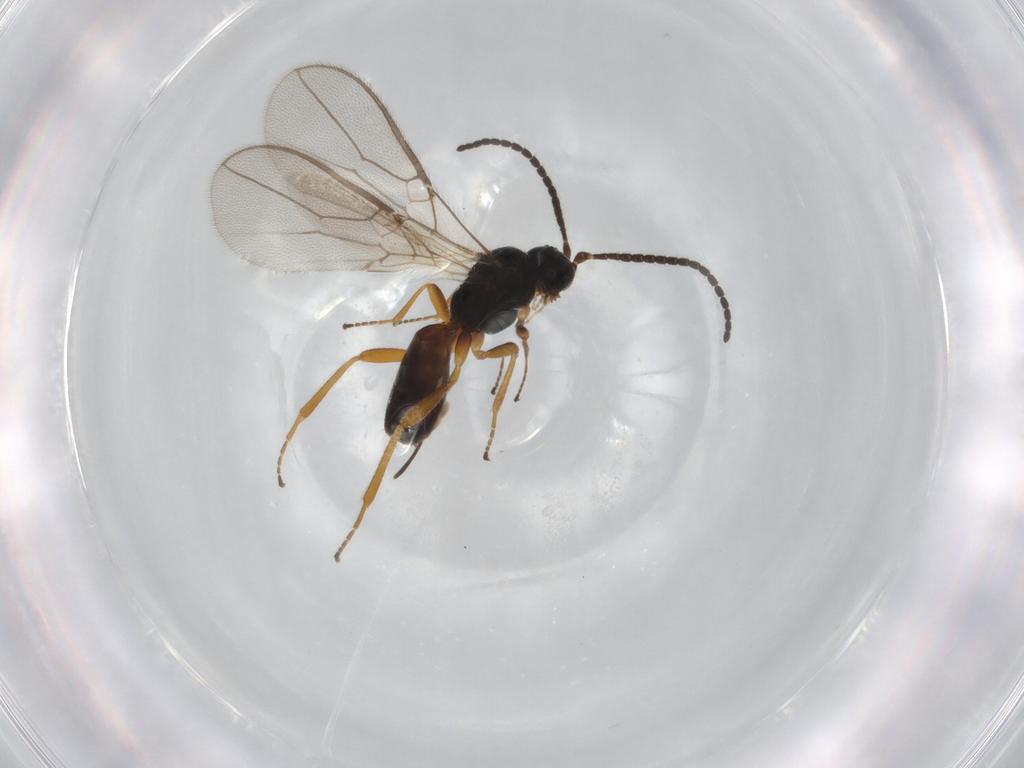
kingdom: Animalia
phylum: Arthropoda
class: Insecta
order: Hymenoptera
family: Braconidae
